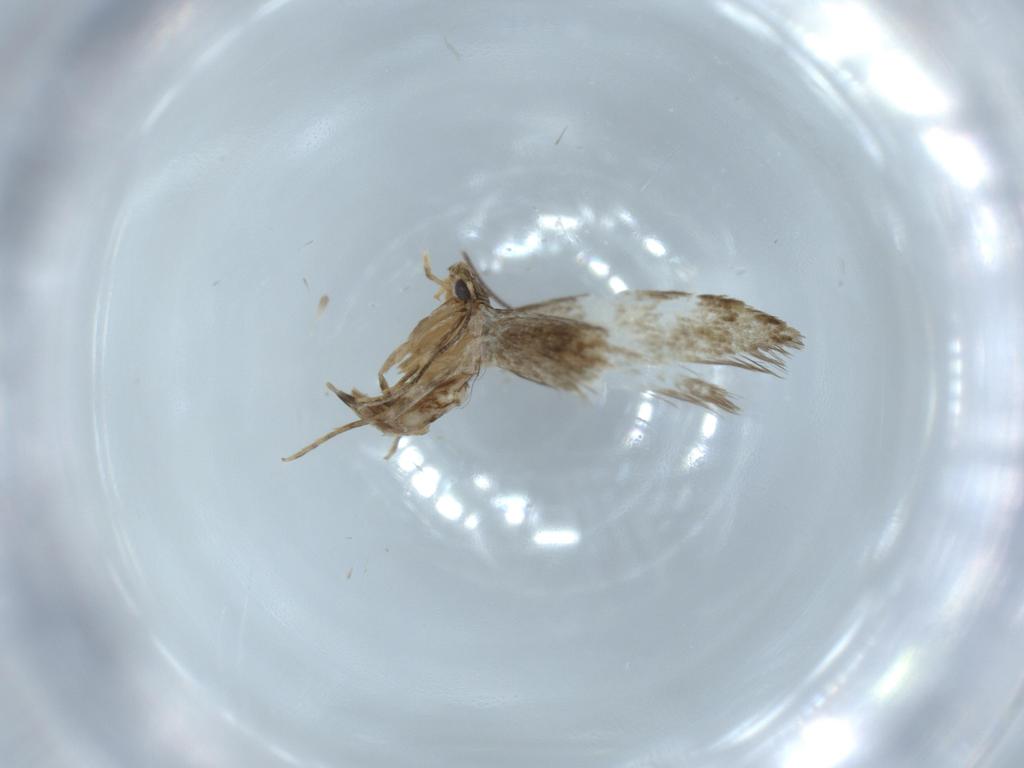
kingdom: Animalia
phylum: Arthropoda
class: Insecta
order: Lepidoptera
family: Tineidae
